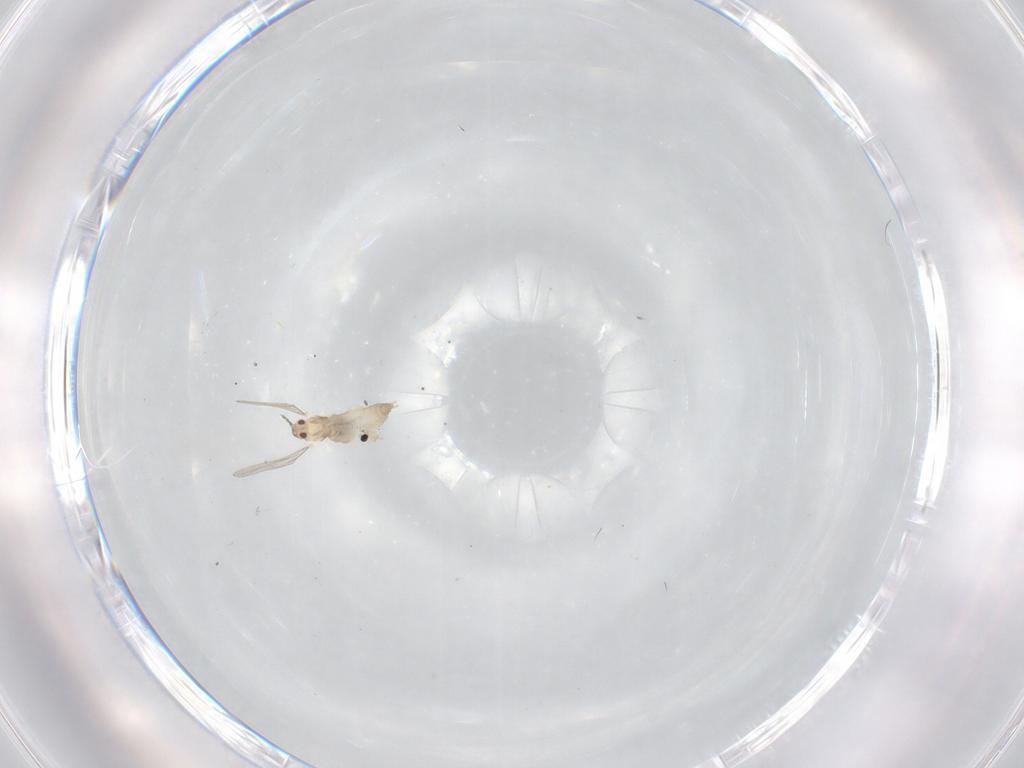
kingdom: Animalia
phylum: Arthropoda
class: Insecta
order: Diptera
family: Cecidomyiidae
